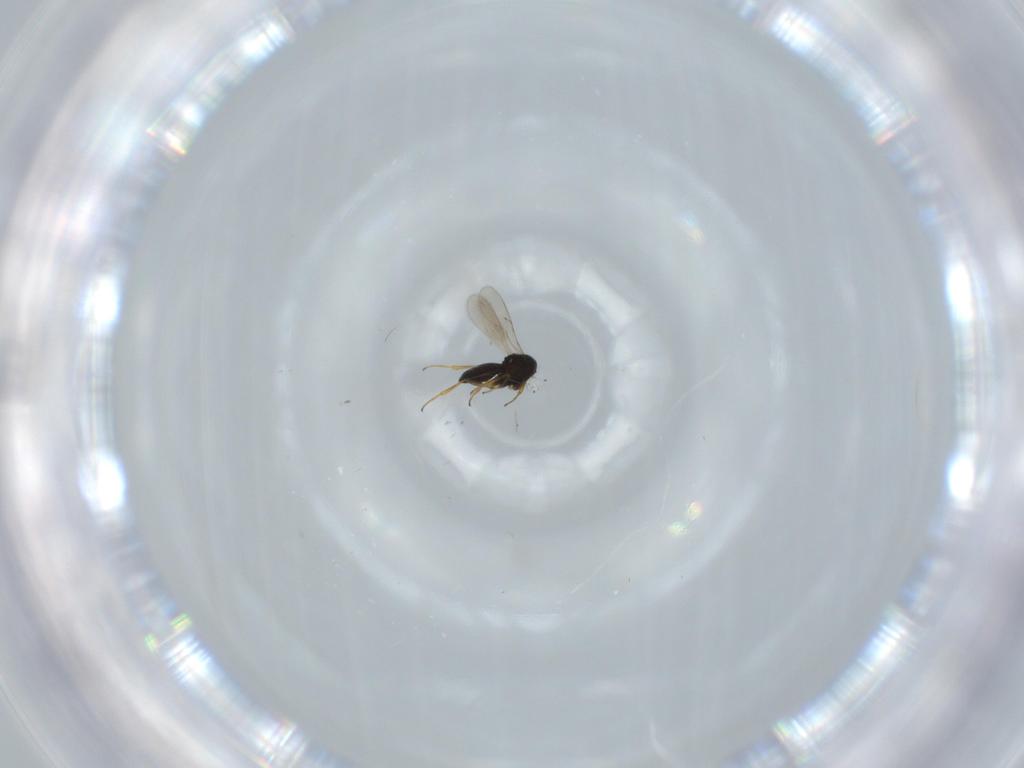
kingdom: Animalia
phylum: Arthropoda
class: Insecta
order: Hymenoptera
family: Scelionidae
